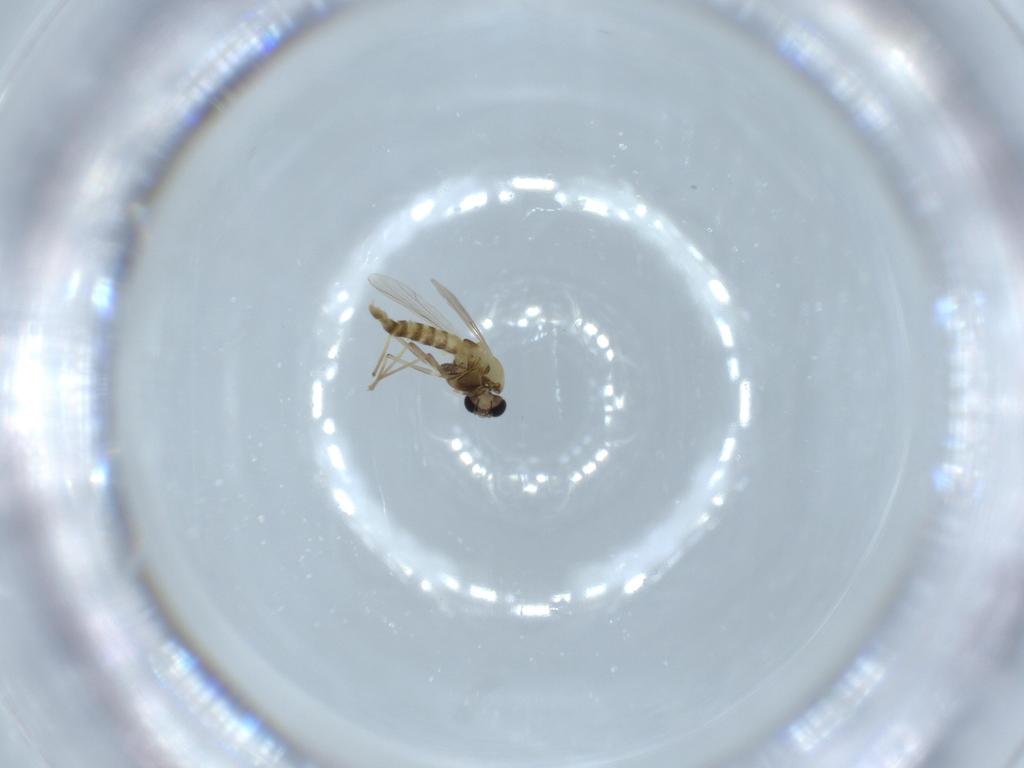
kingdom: Animalia
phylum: Arthropoda
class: Insecta
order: Diptera
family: Chironomidae
